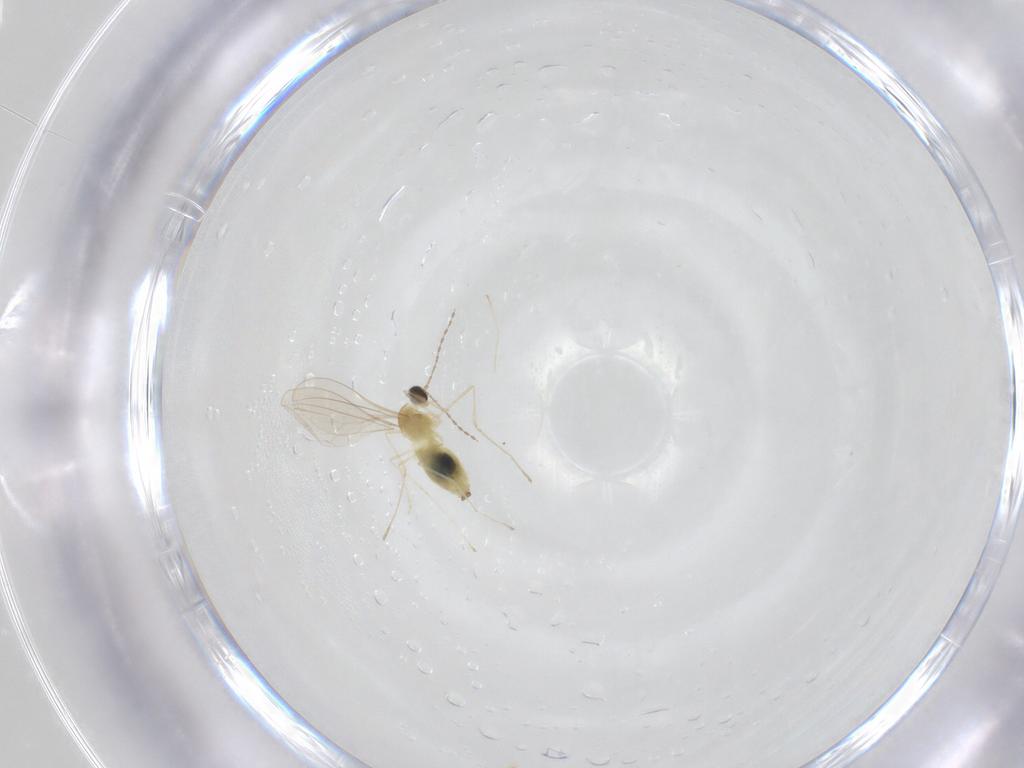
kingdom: Animalia
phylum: Arthropoda
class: Insecta
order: Diptera
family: Cecidomyiidae
